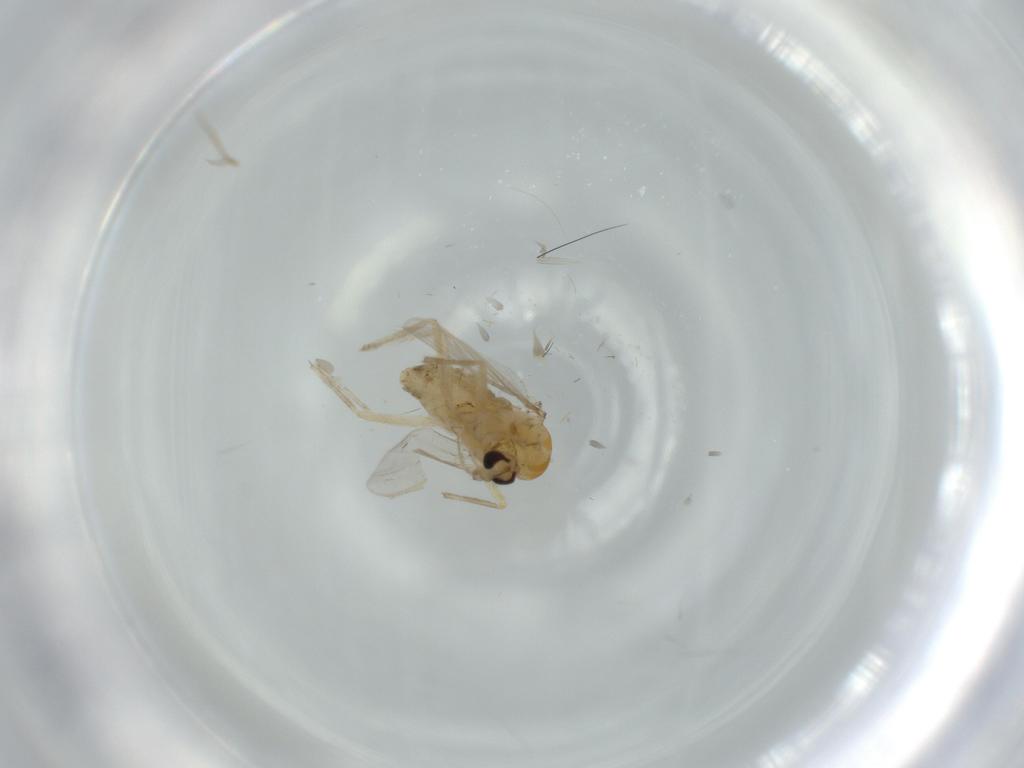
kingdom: Animalia
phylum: Arthropoda
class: Insecta
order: Diptera
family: Chironomidae
